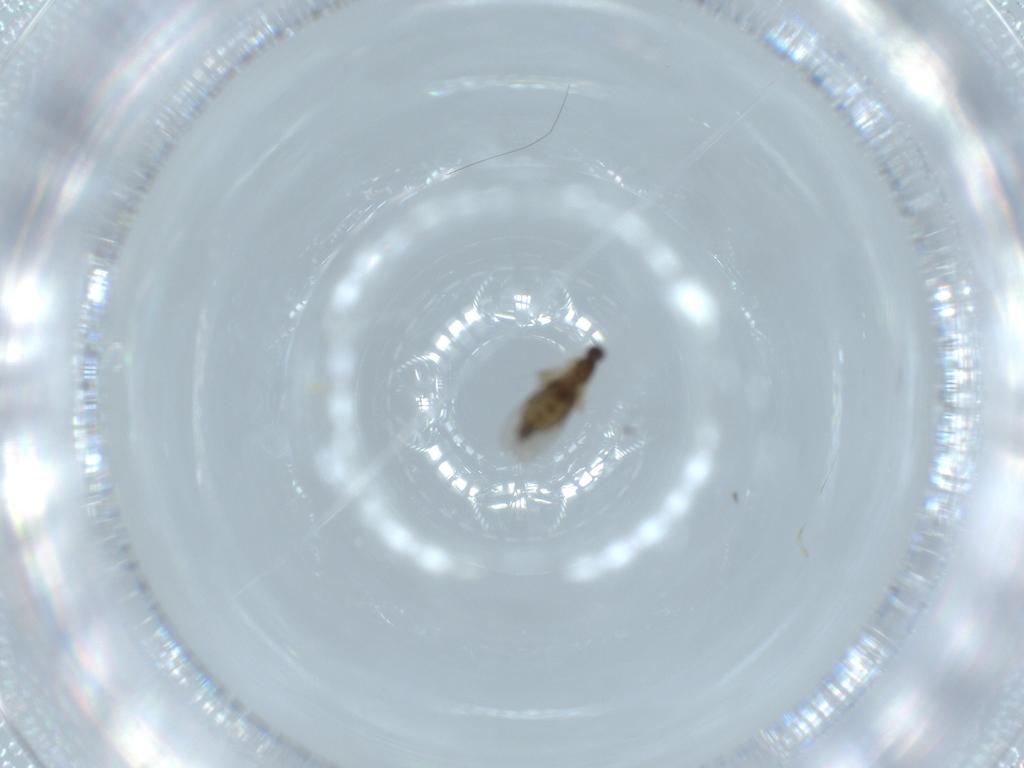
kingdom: Animalia
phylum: Arthropoda
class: Insecta
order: Diptera
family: Phoridae
